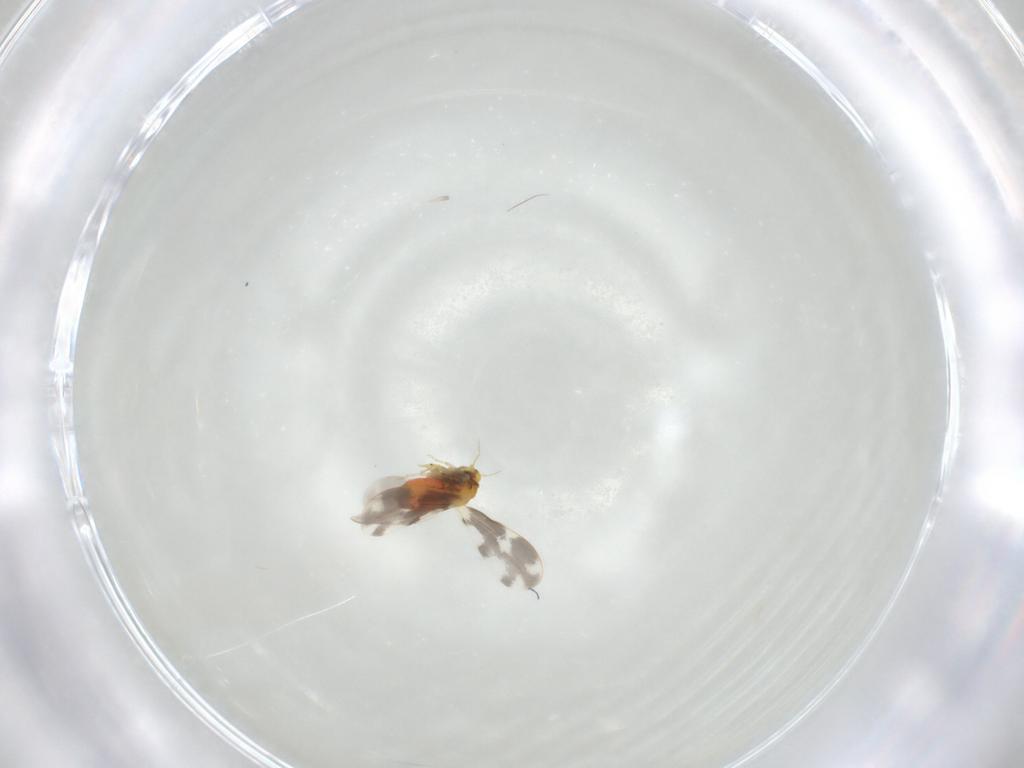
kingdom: Animalia
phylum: Arthropoda
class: Insecta
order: Hemiptera
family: Aleyrodidae
